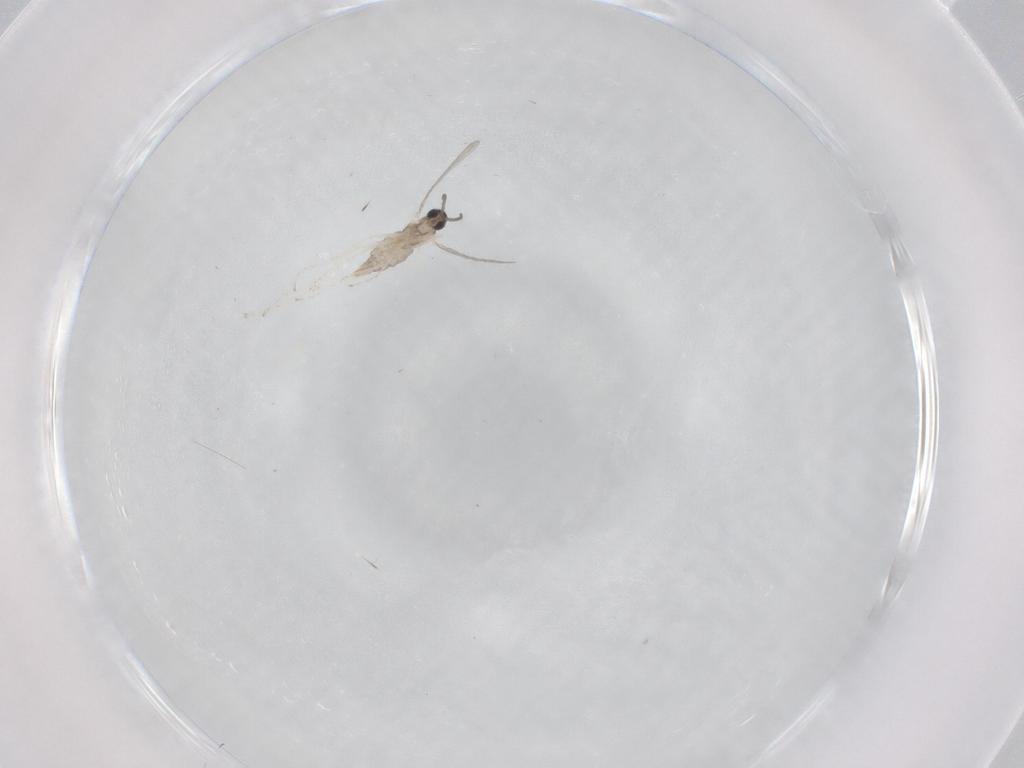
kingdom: Animalia
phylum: Arthropoda
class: Insecta
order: Diptera
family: Cecidomyiidae
